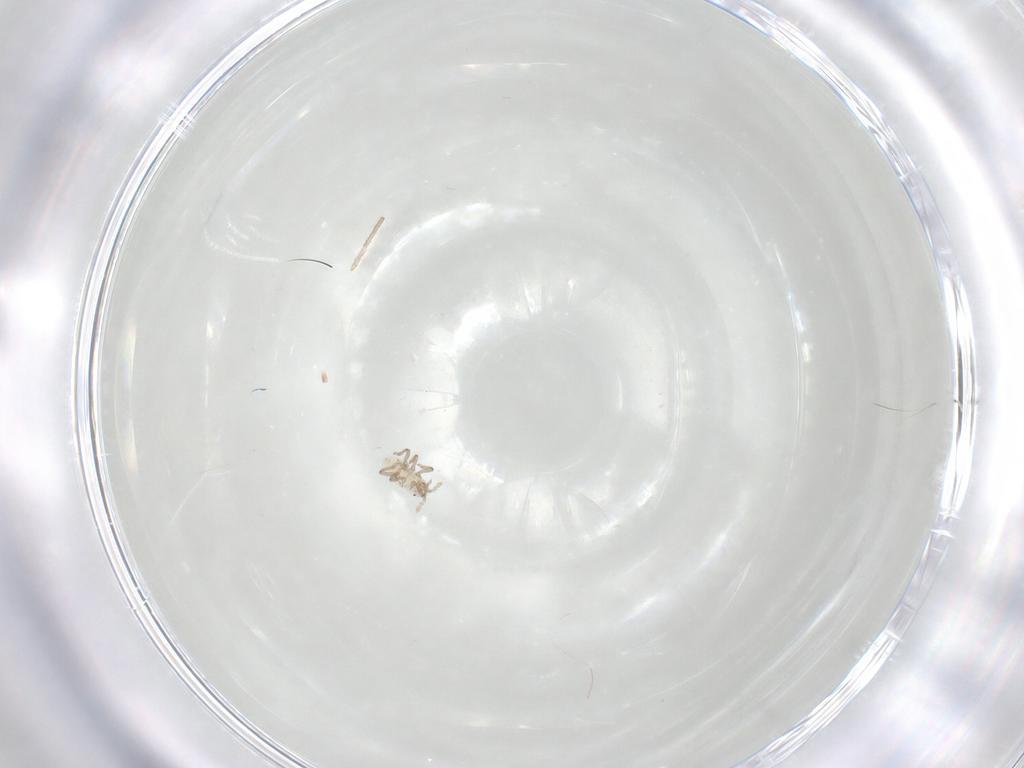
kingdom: Animalia
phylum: Arthropoda
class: Insecta
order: Hemiptera
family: Aphididae
